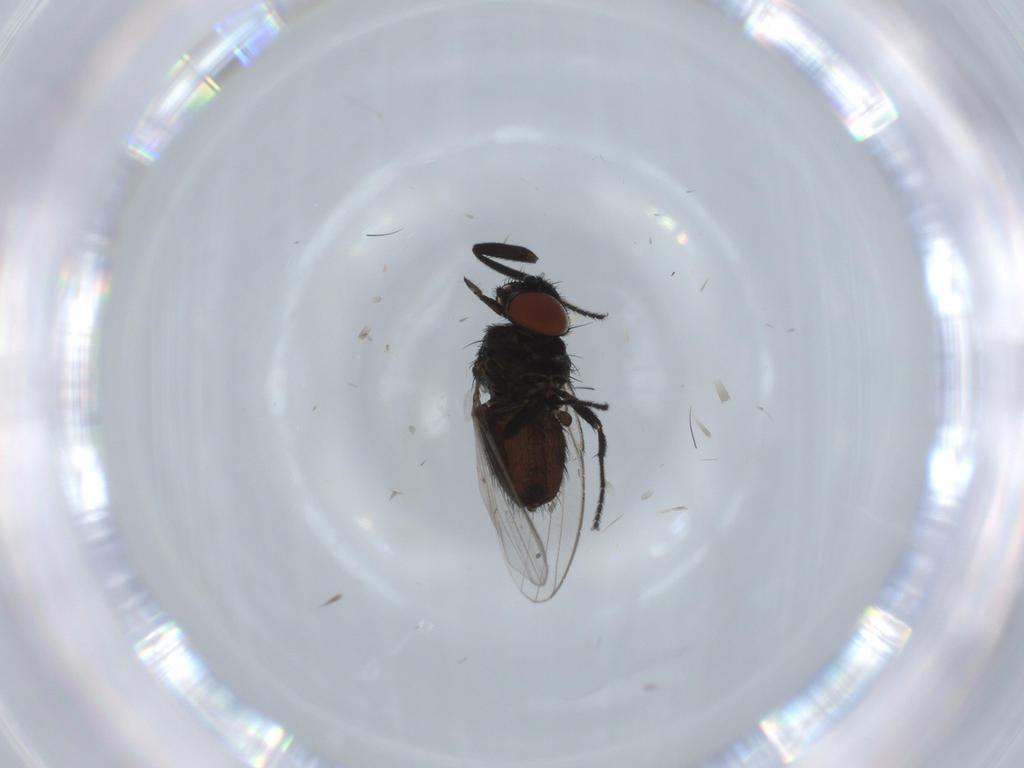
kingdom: Animalia
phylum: Arthropoda
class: Insecta
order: Diptera
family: Milichiidae
